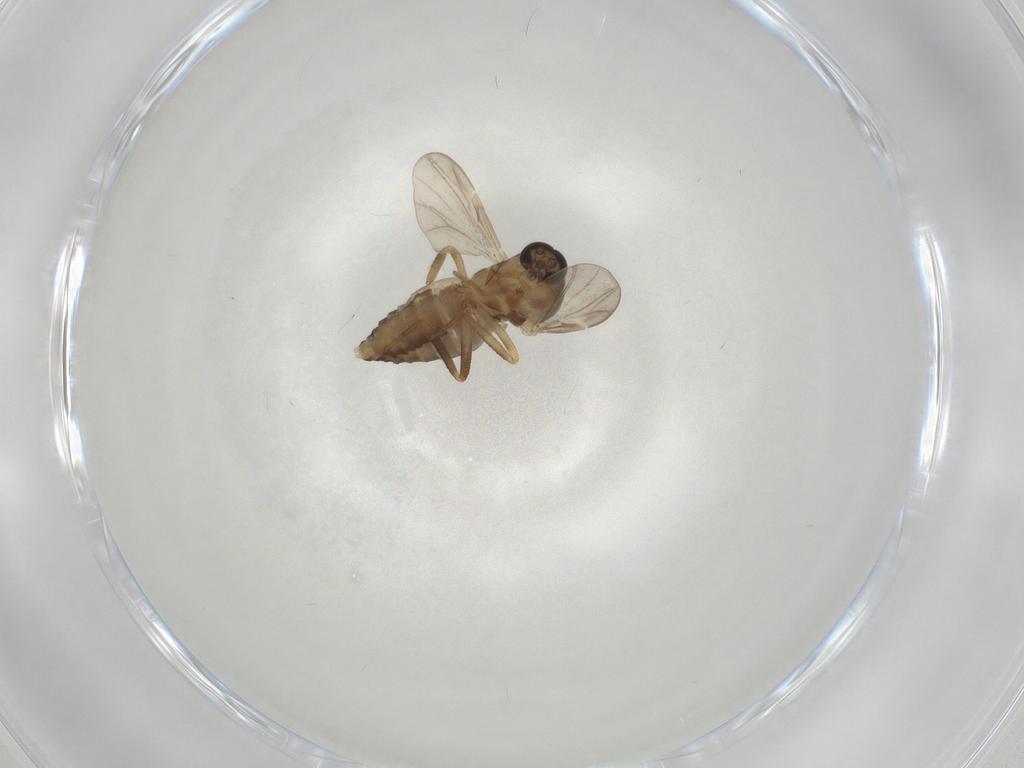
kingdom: Animalia
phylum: Arthropoda
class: Insecta
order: Diptera
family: Ceratopogonidae
